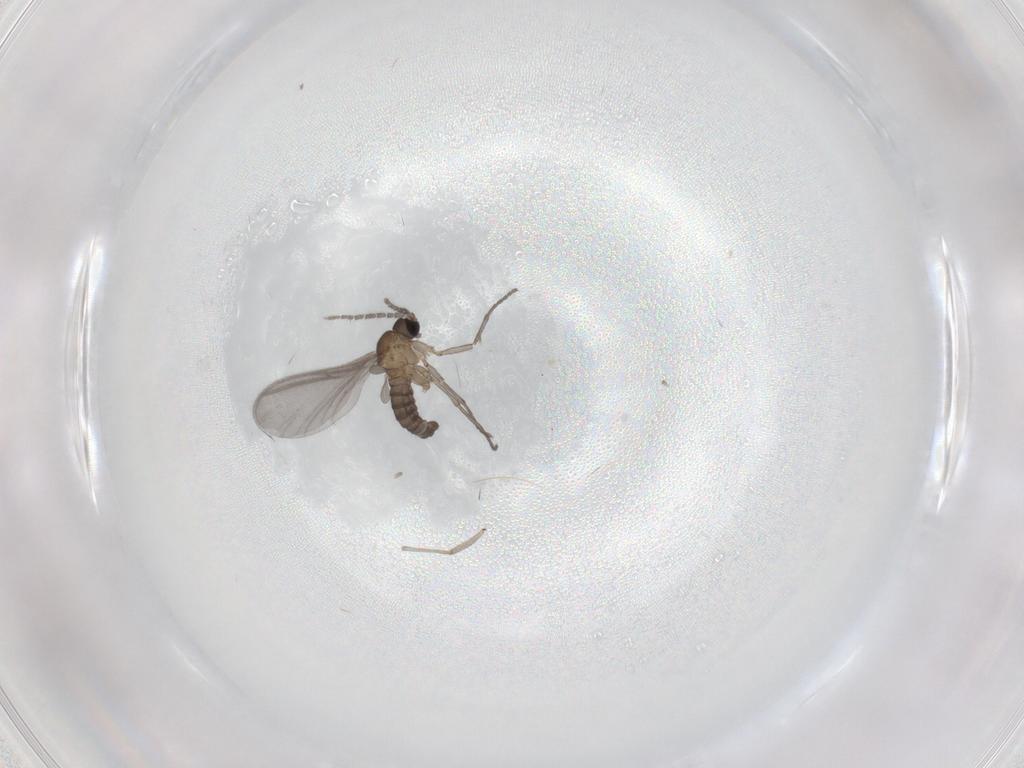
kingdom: Animalia
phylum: Arthropoda
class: Insecta
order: Diptera
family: Sciaridae
